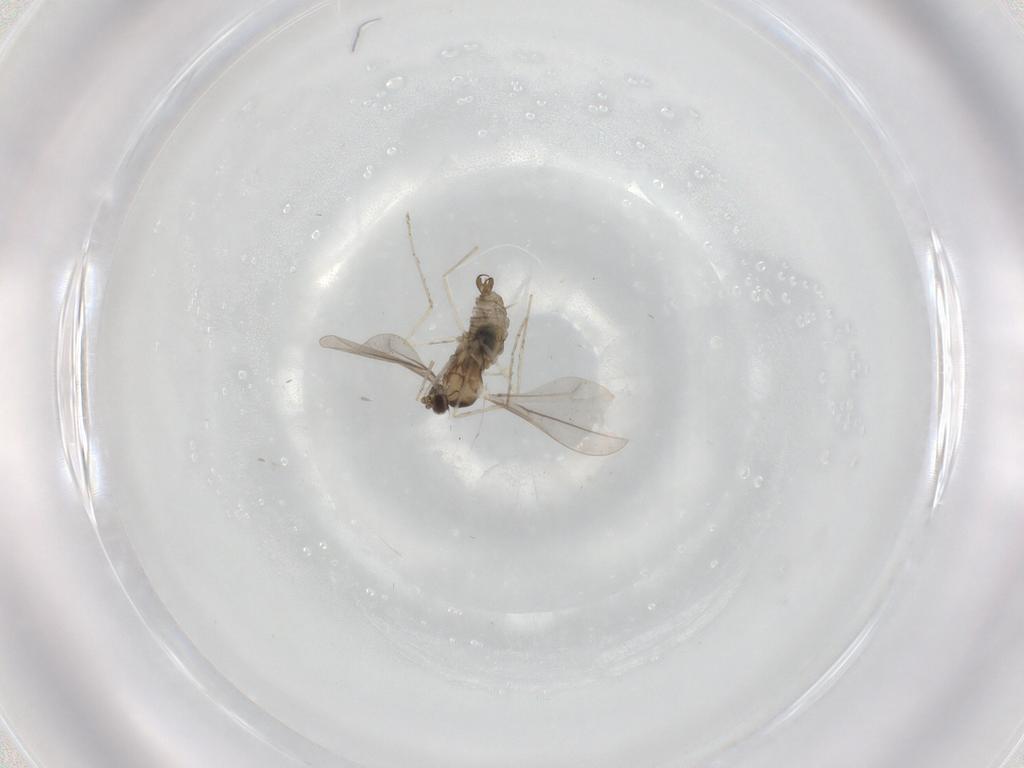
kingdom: Animalia
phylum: Arthropoda
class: Insecta
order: Diptera
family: Cecidomyiidae
